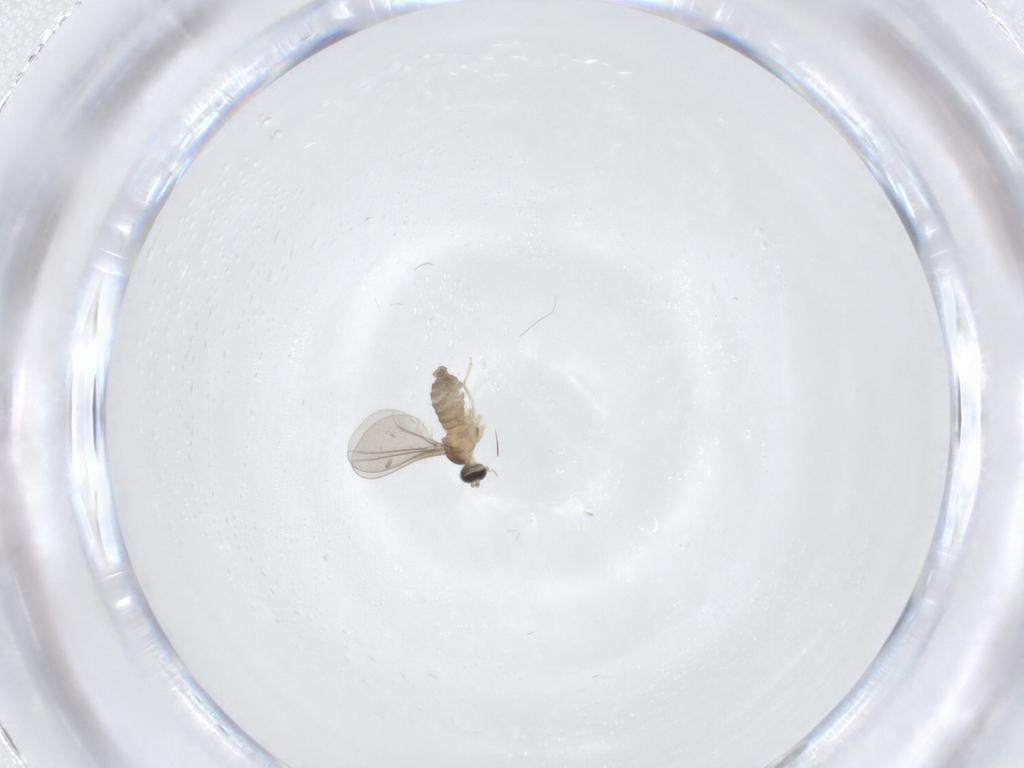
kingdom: Animalia
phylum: Arthropoda
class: Insecta
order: Diptera
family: Cecidomyiidae
